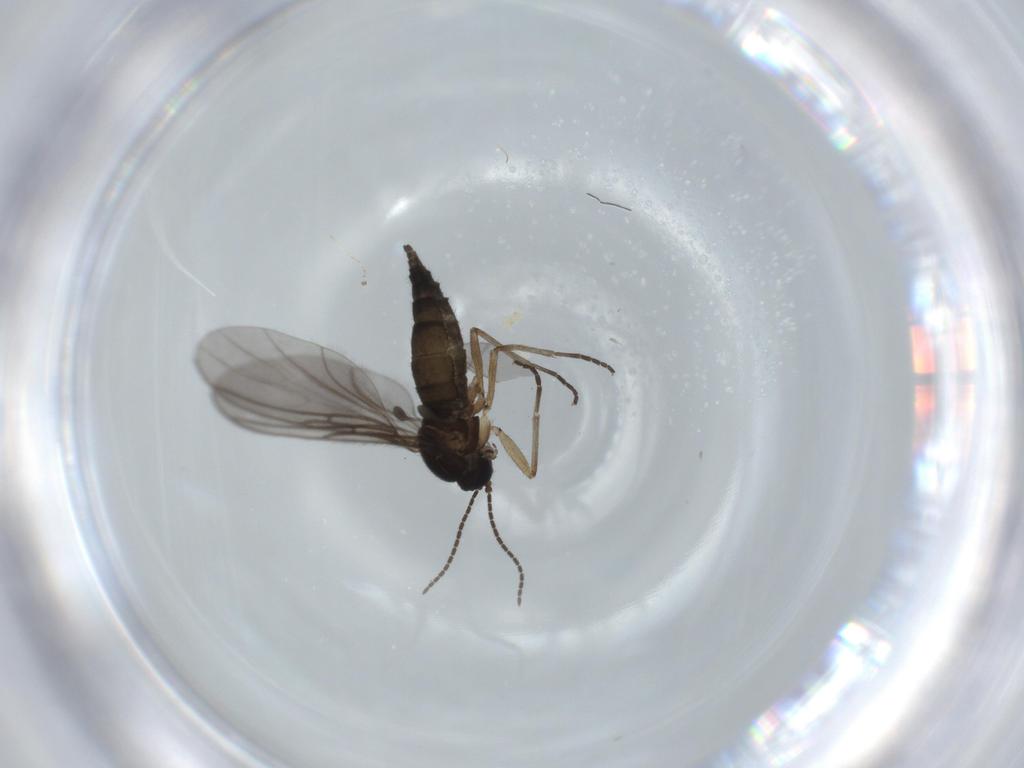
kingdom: Animalia
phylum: Arthropoda
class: Insecta
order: Diptera
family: Sciaridae
